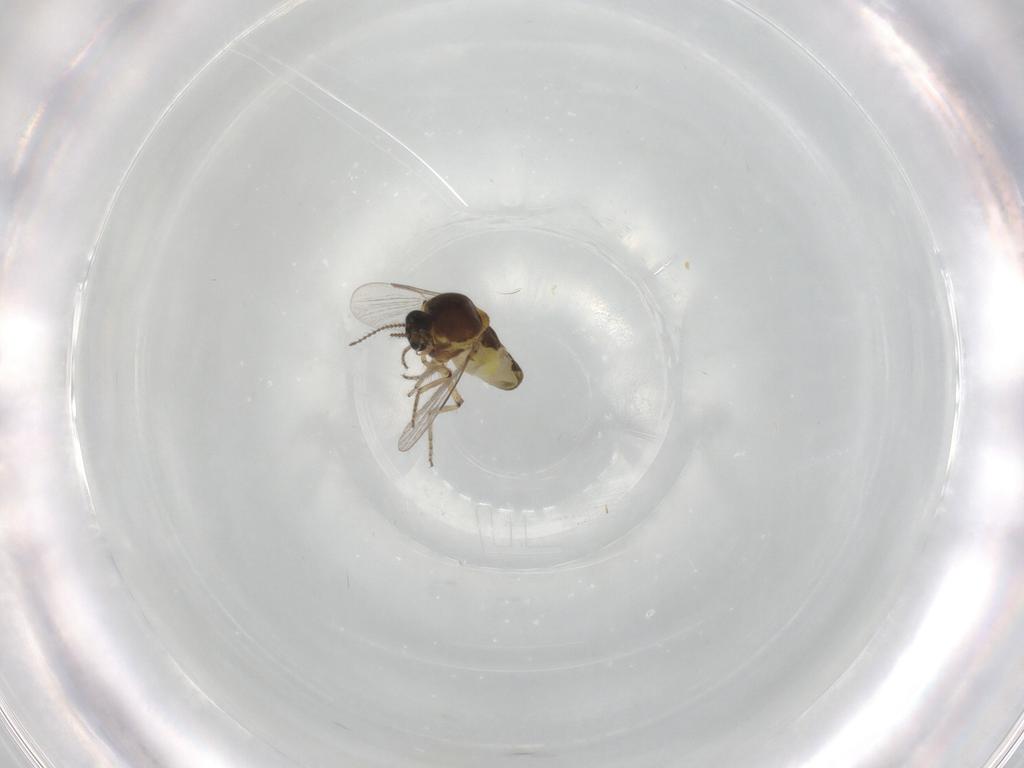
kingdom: Animalia
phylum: Arthropoda
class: Insecta
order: Diptera
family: Ceratopogonidae
